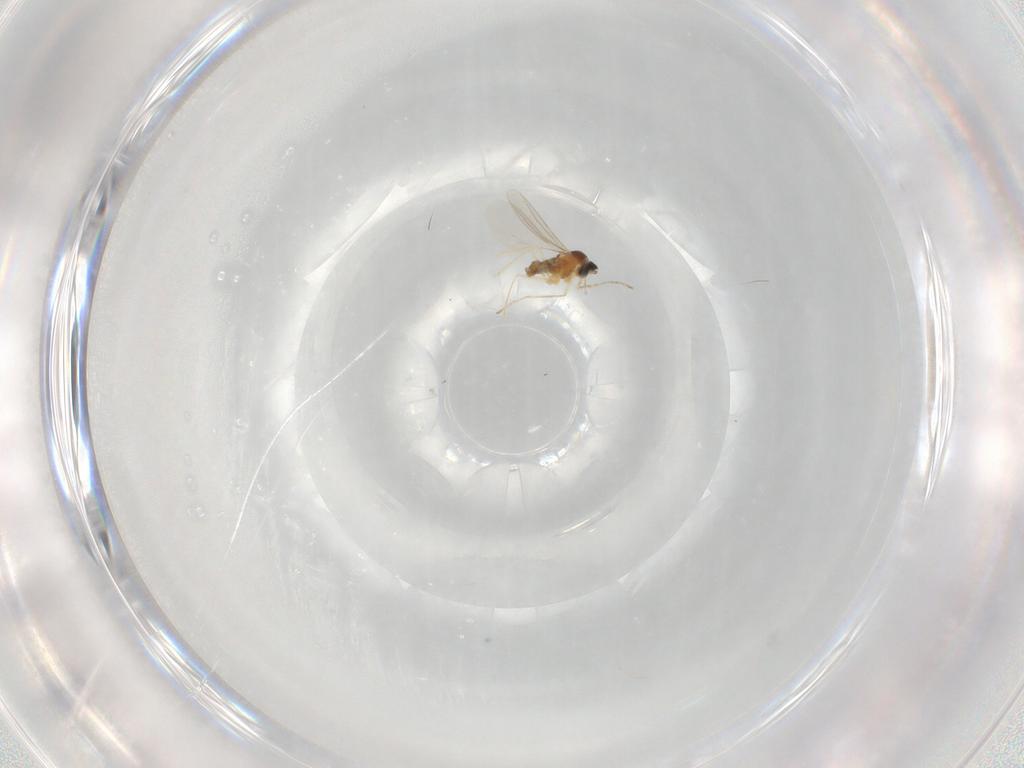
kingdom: Animalia
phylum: Arthropoda
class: Insecta
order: Diptera
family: Cecidomyiidae
